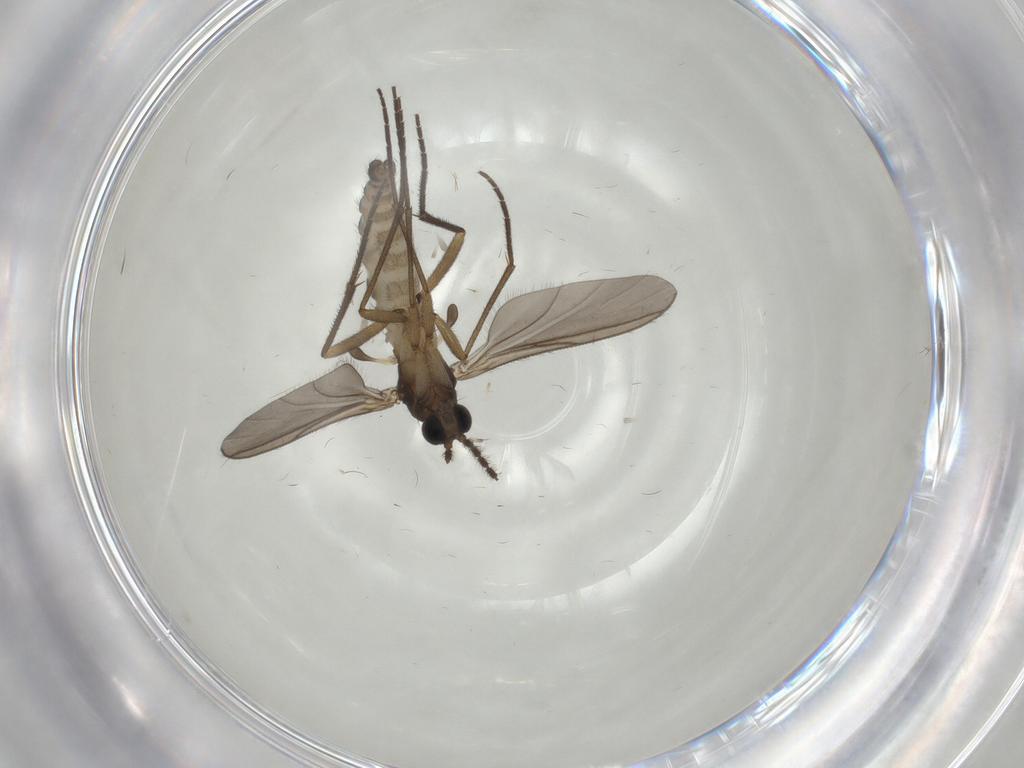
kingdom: Animalia
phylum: Arthropoda
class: Insecta
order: Diptera
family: Sciaridae
